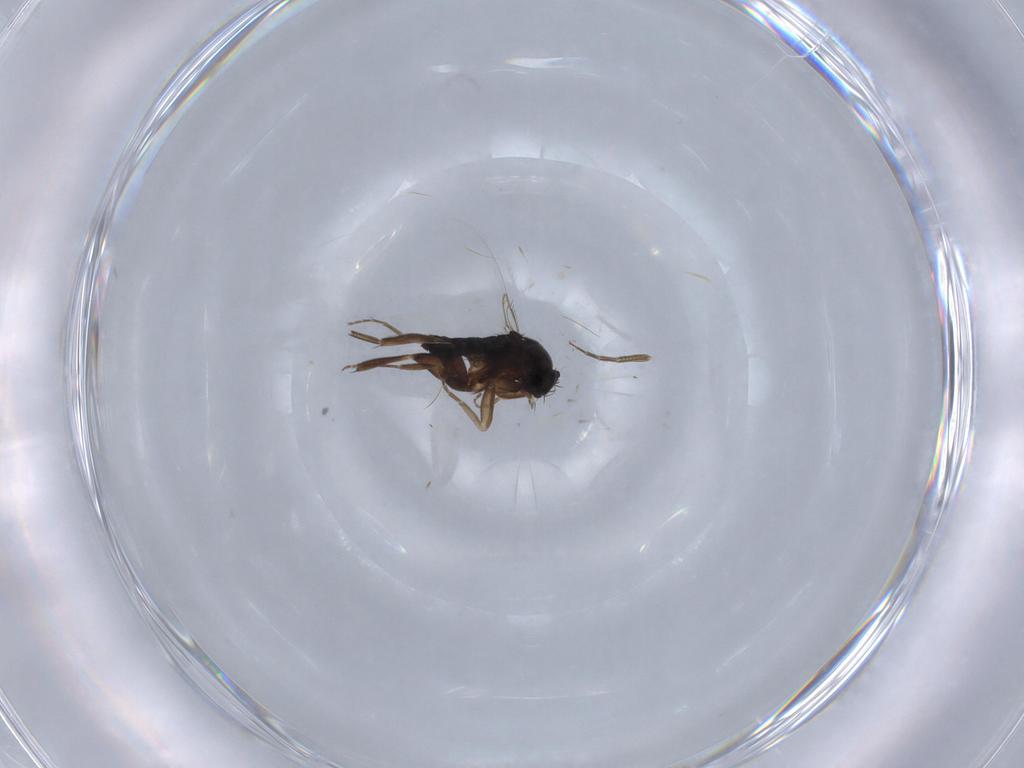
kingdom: Animalia
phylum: Arthropoda
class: Insecta
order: Diptera
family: Phoridae
